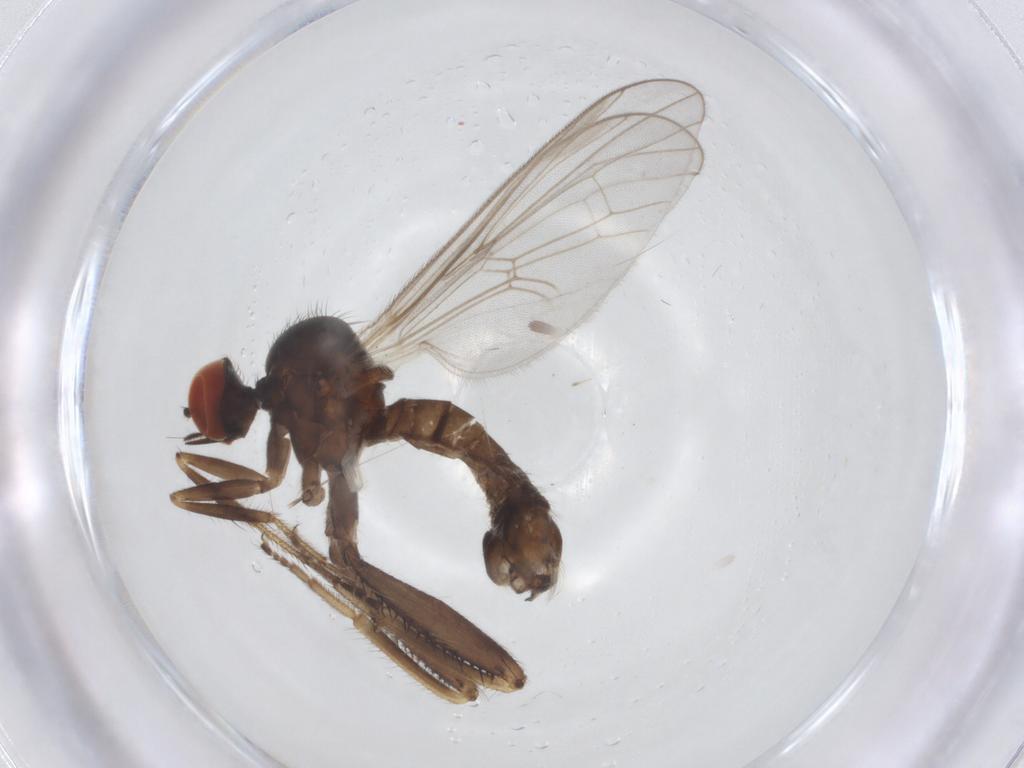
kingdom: Animalia
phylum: Arthropoda
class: Insecta
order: Diptera
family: Hybotidae
